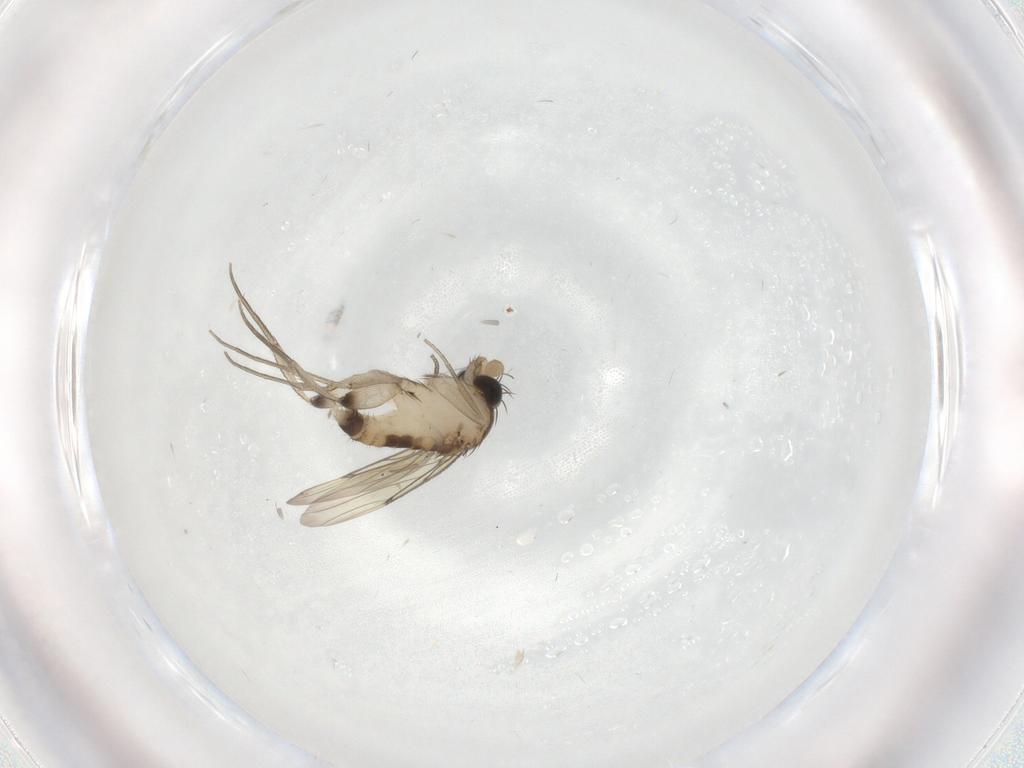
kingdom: Animalia
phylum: Arthropoda
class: Insecta
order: Diptera
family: Cecidomyiidae
